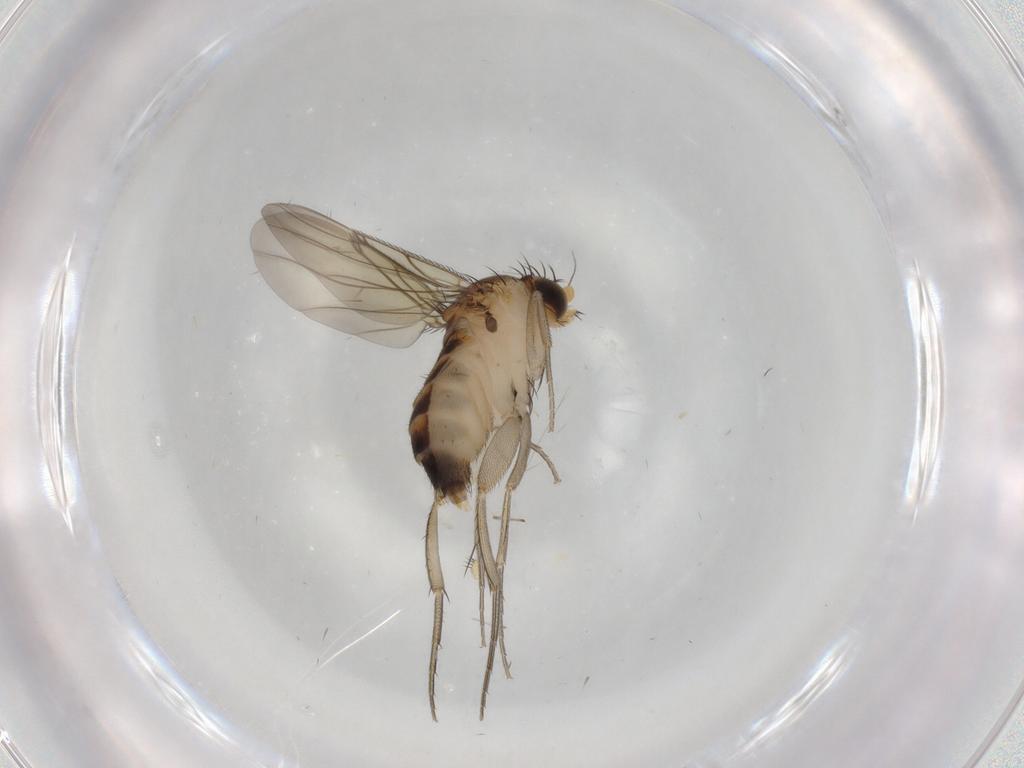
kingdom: Animalia
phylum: Arthropoda
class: Insecta
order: Diptera
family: Phoridae
